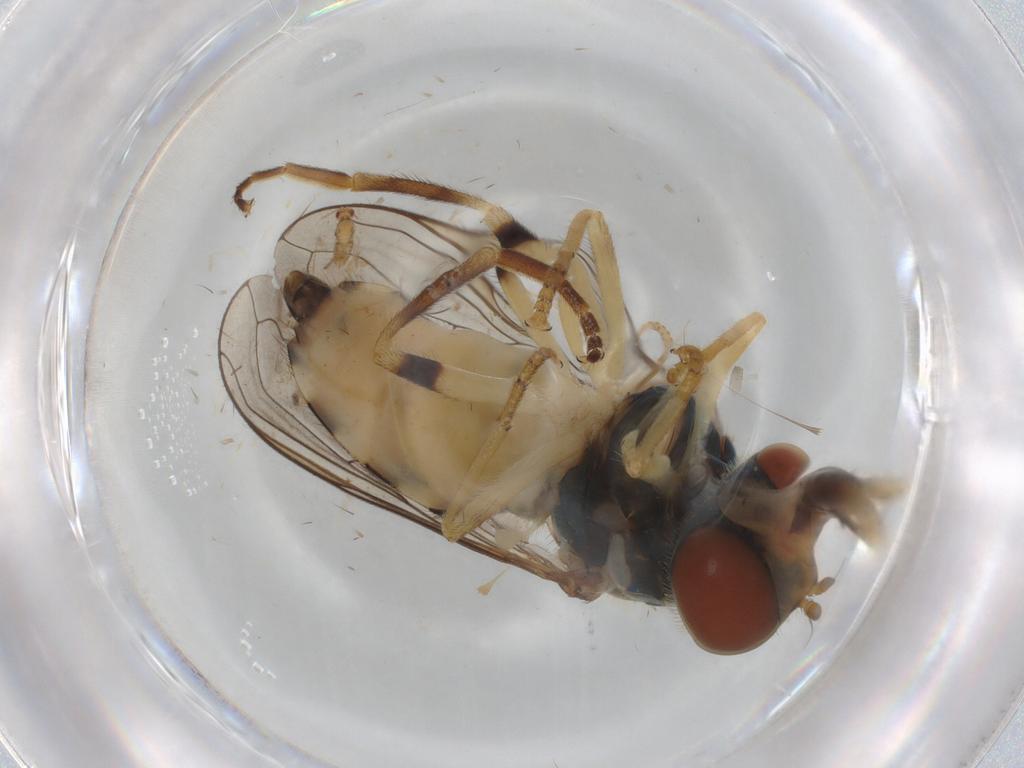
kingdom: Animalia
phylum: Arthropoda
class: Insecta
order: Diptera
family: Syrphidae
